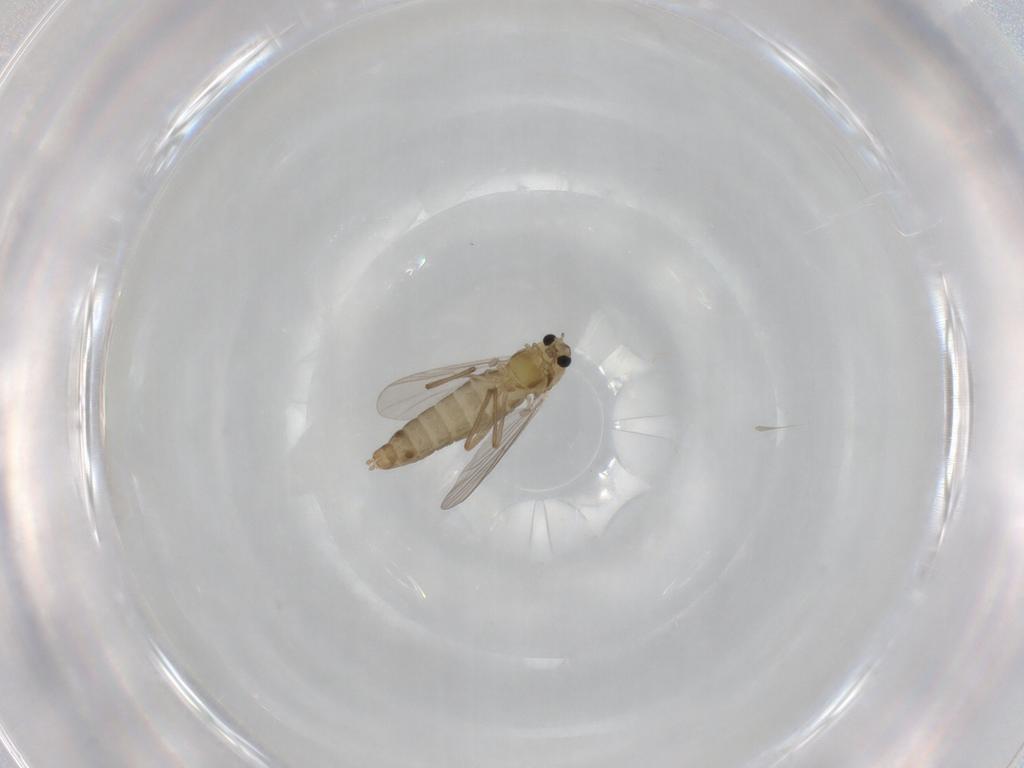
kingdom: Animalia
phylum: Arthropoda
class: Insecta
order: Diptera
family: Chironomidae
